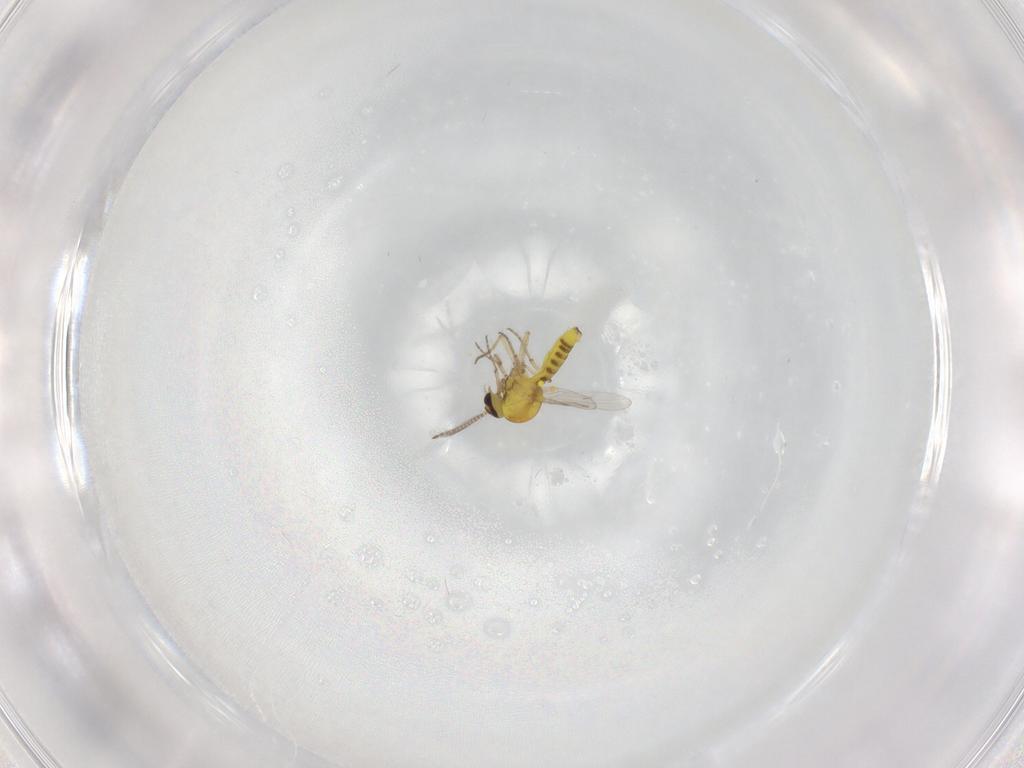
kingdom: Animalia
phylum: Arthropoda
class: Insecta
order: Diptera
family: Ceratopogonidae
